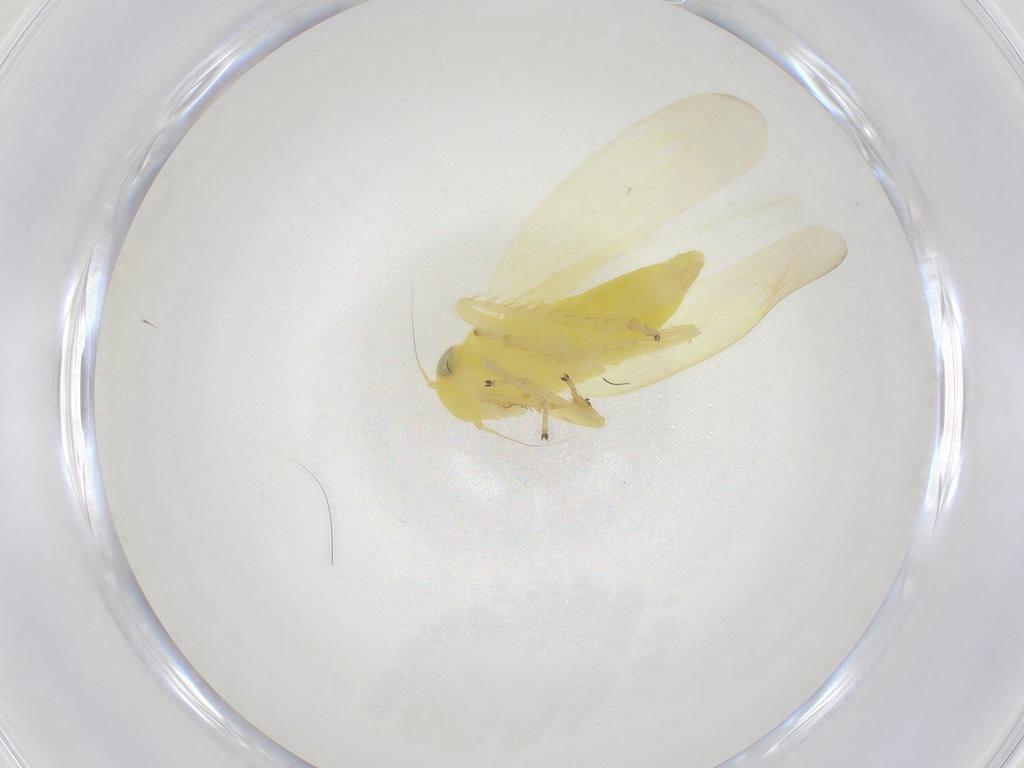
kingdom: Animalia
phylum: Arthropoda
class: Insecta
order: Hemiptera
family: Cicadellidae
